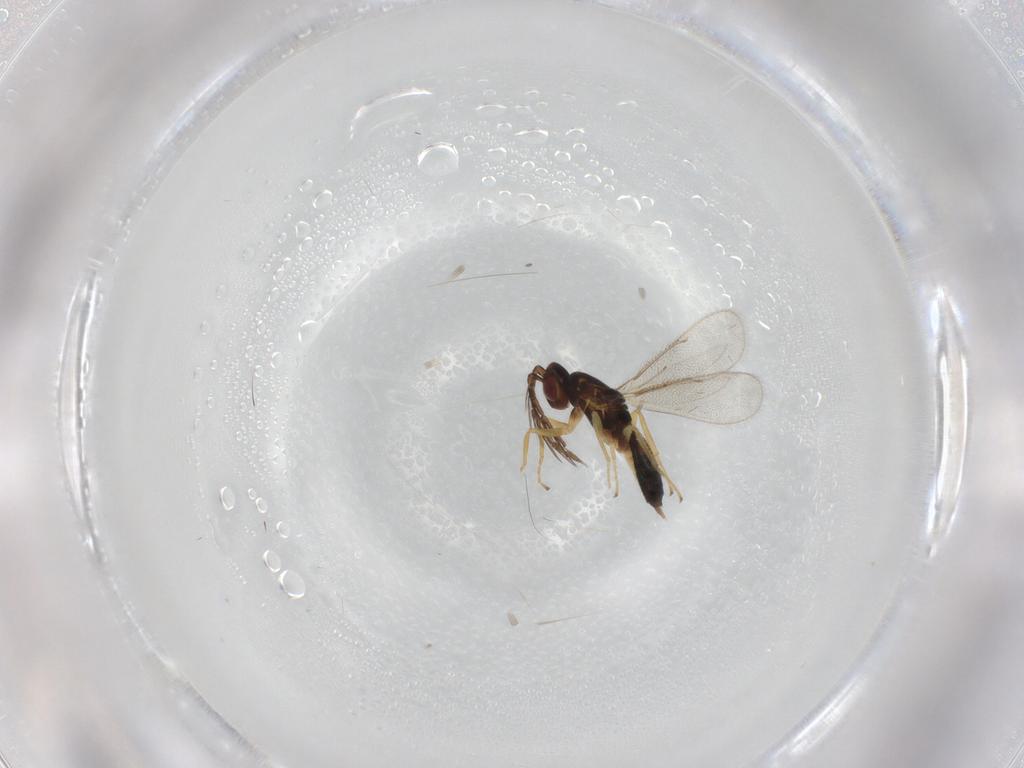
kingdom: Animalia
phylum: Arthropoda
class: Insecta
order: Hymenoptera
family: Eulophidae
